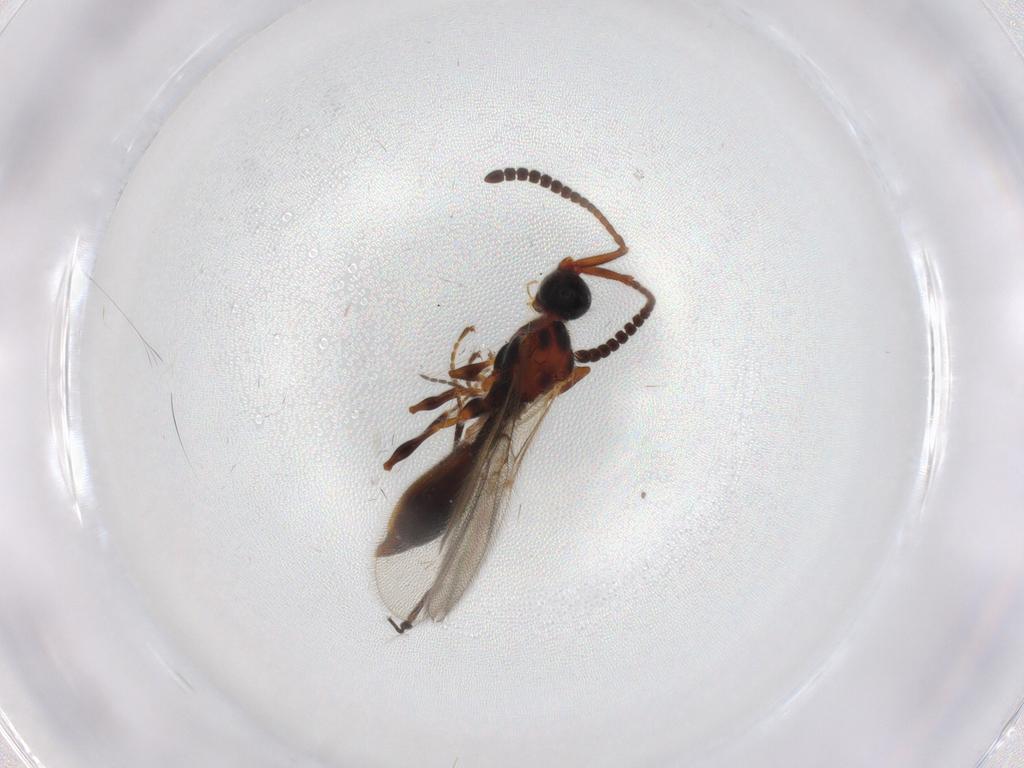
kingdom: Animalia
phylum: Arthropoda
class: Insecta
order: Hymenoptera
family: Diapriidae
